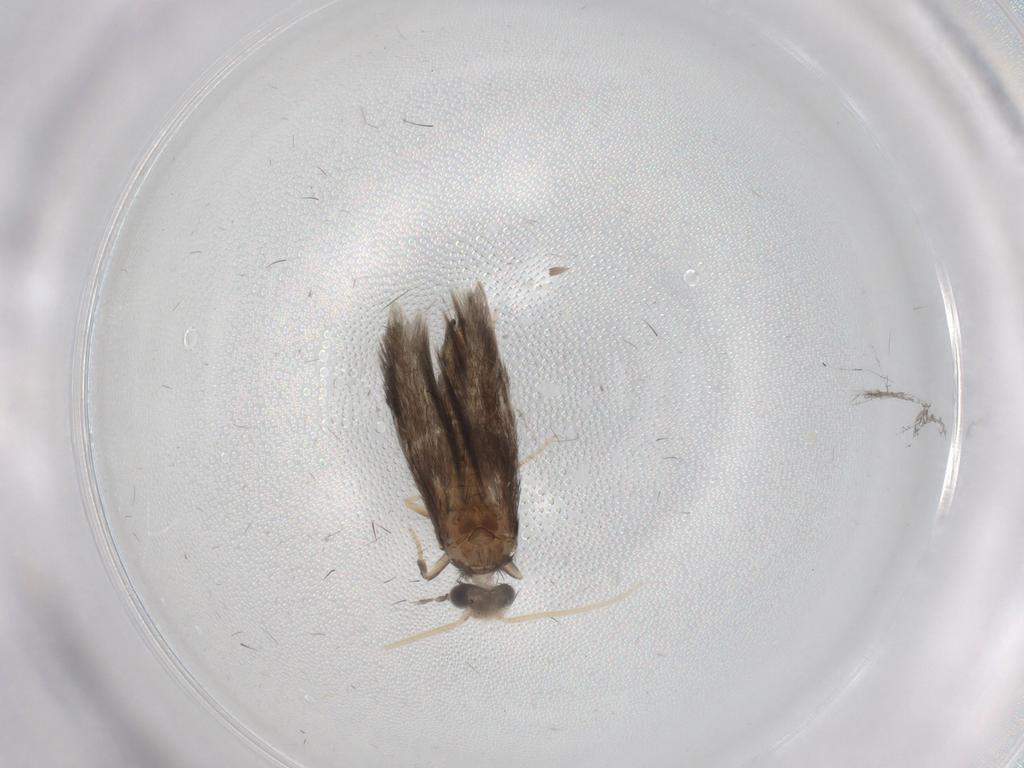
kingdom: Animalia
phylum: Arthropoda
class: Insecta
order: Trichoptera
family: Hydroptilidae
